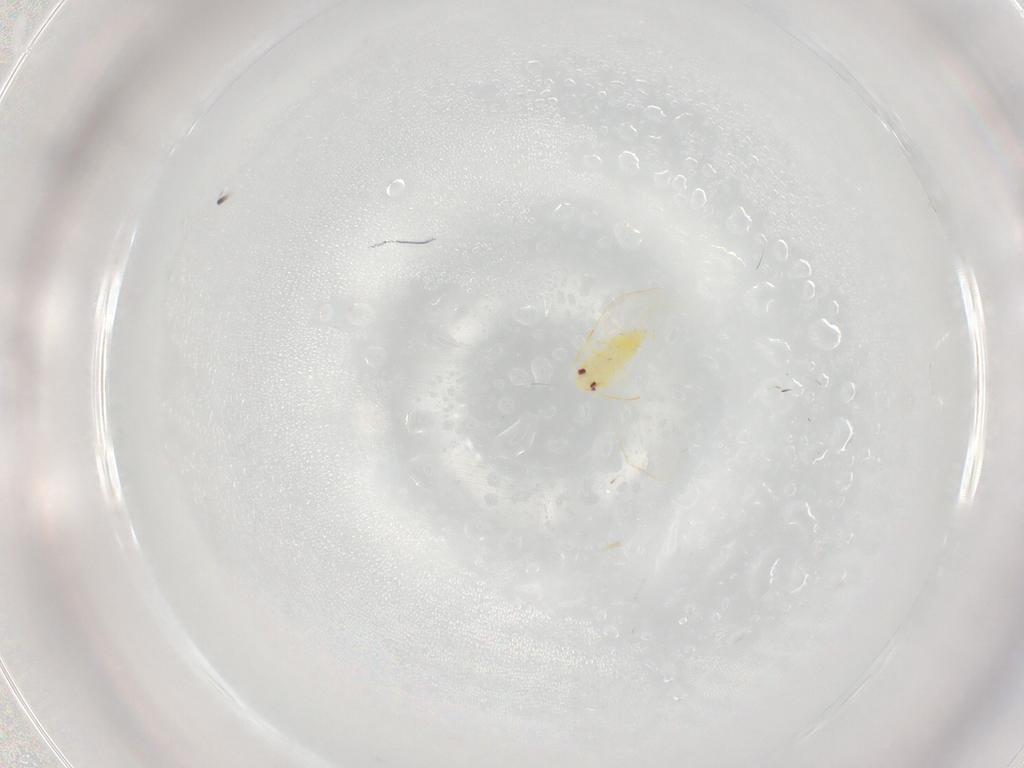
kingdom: Animalia
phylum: Arthropoda
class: Insecta
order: Hemiptera
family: Aleyrodidae
